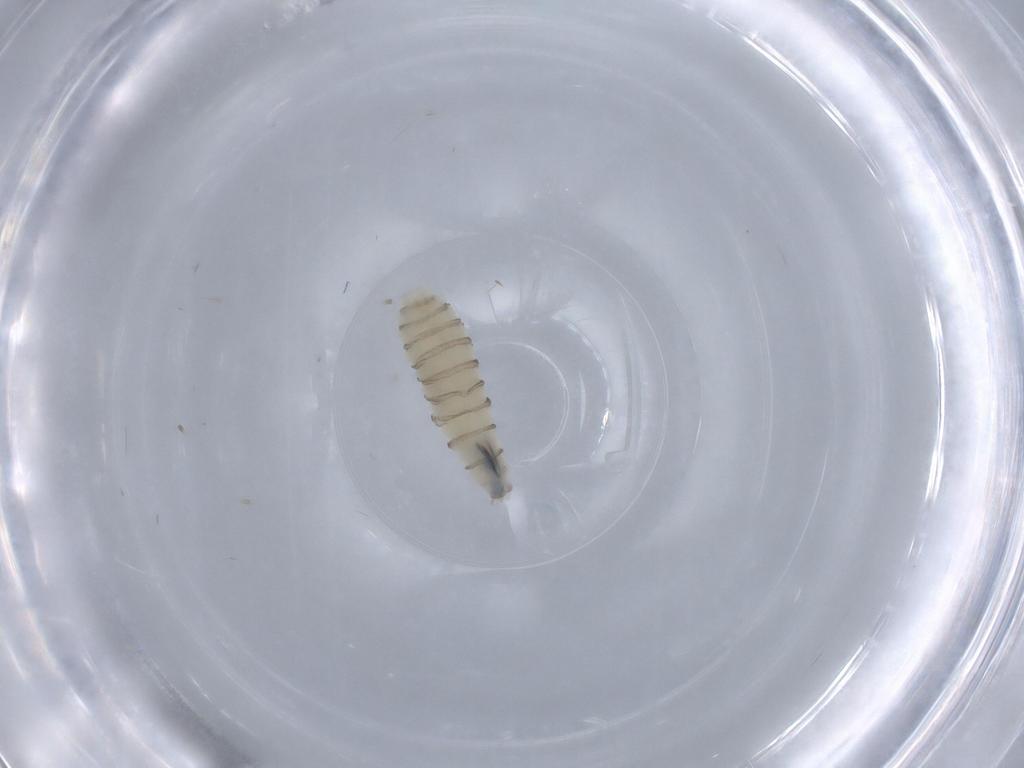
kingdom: Animalia
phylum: Arthropoda
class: Insecta
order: Diptera
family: Sarcophagidae
